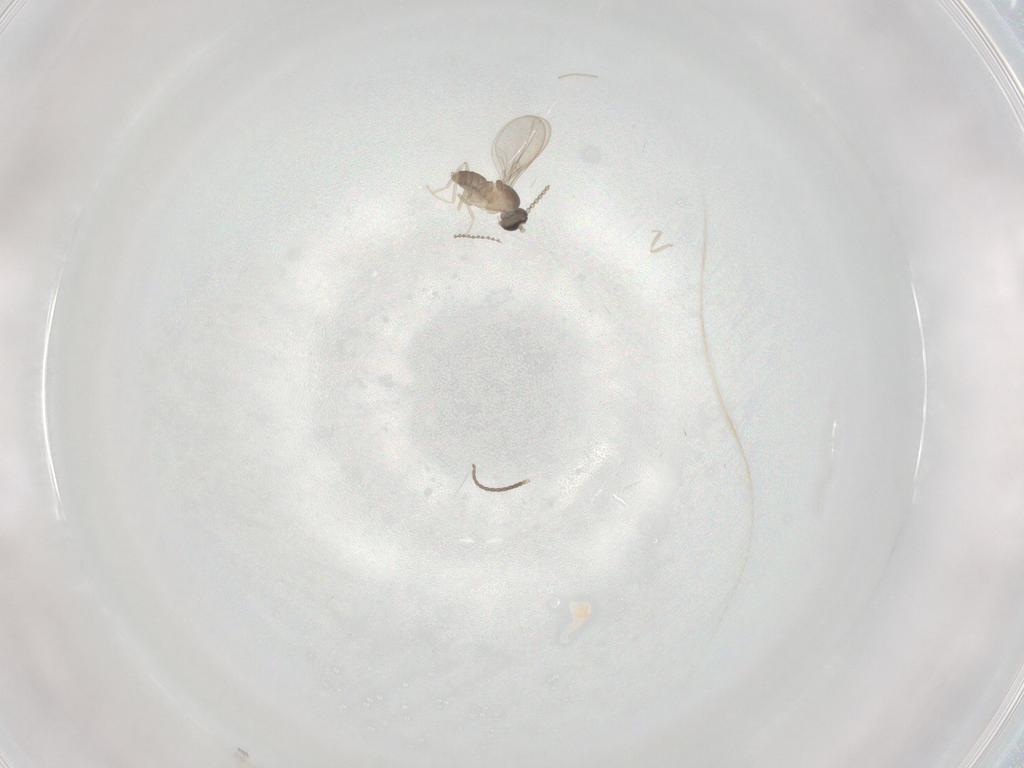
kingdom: Animalia
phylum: Arthropoda
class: Insecta
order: Diptera
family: Cecidomyiidae
